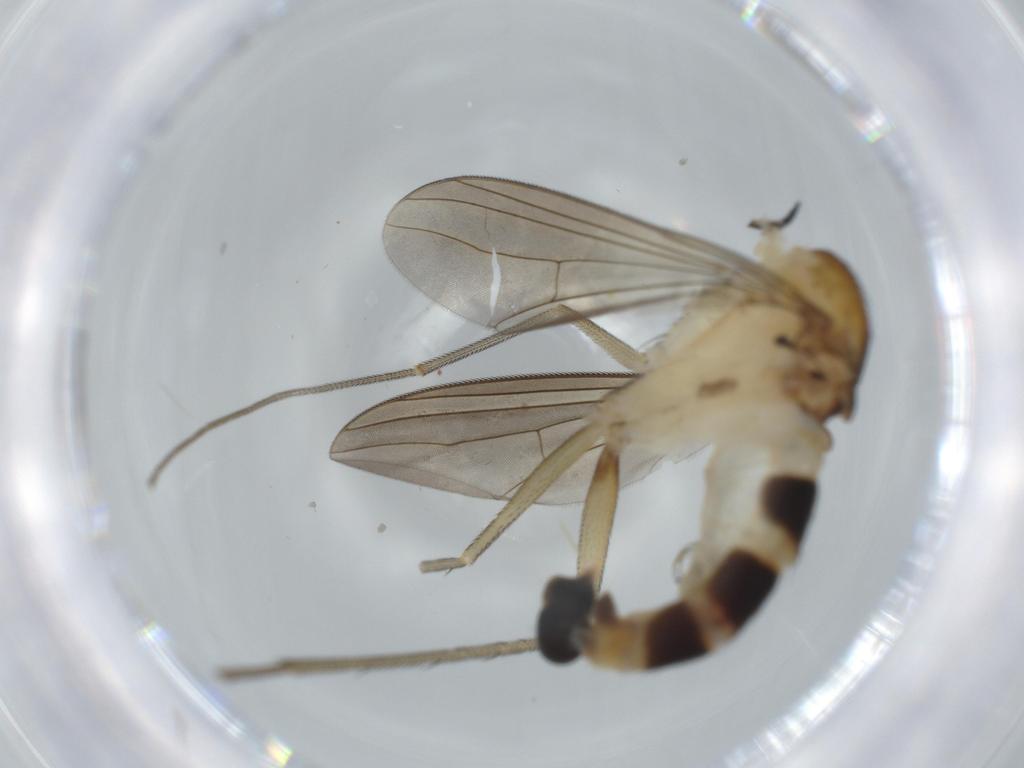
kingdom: Animalia
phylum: Arthropoda
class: Insecta
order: Diptera
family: Dolichopodidae
